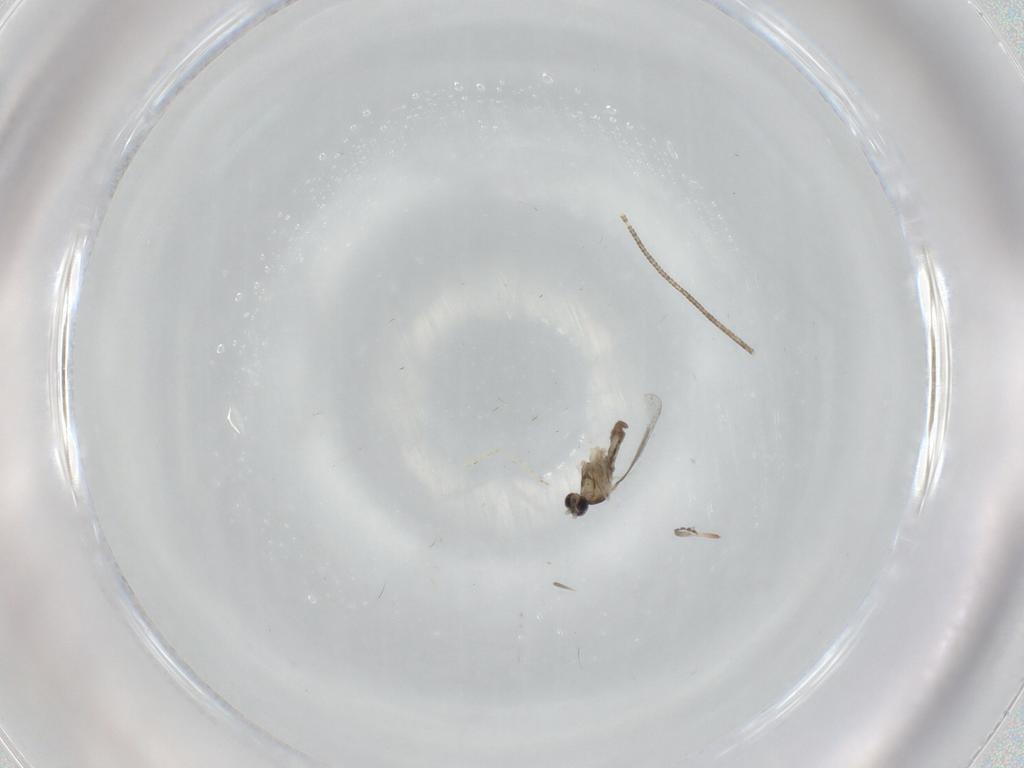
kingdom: Animalia
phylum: Arthropoda
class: Insecta
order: Diptera
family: Cecidomyiidae
